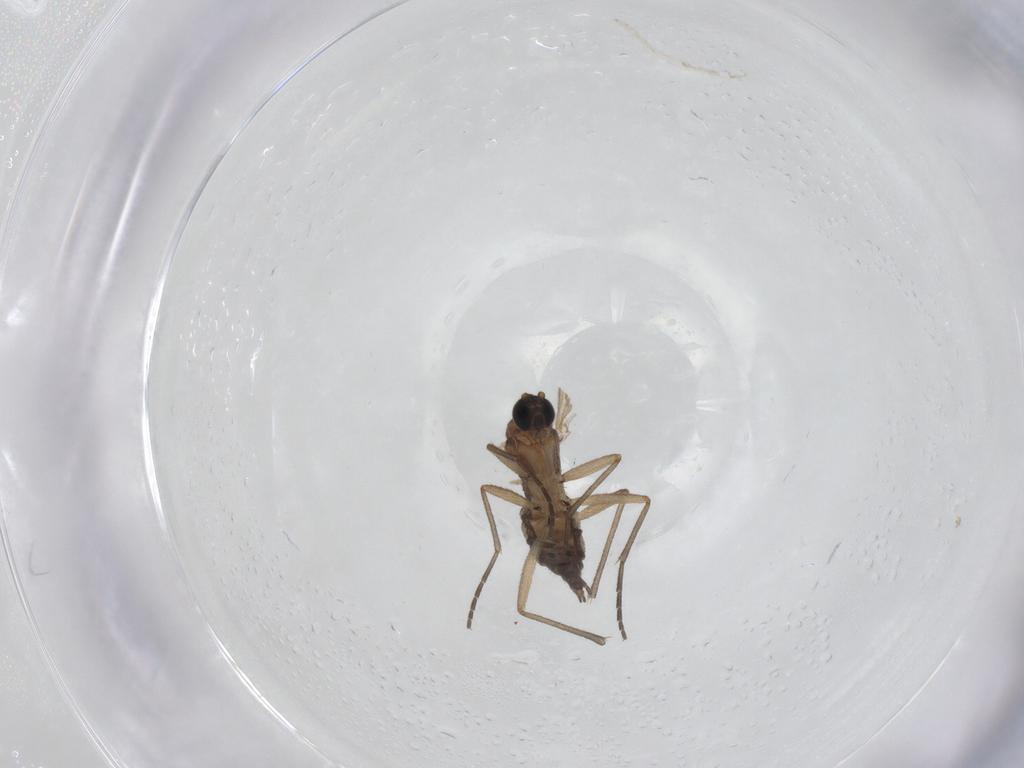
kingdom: Animalia
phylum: Arthropoda
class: Insecta
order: Diptera
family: Sciaridae
